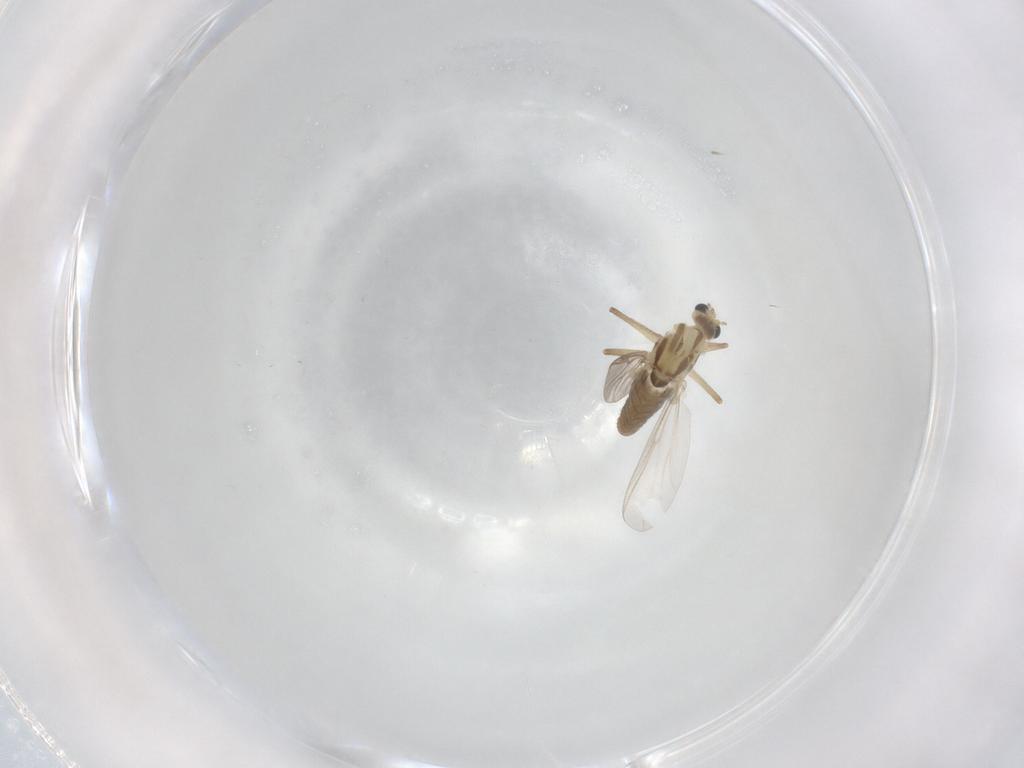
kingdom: Animalia
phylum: Arthropoda
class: Insecta
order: Diptera
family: Chironomidae
